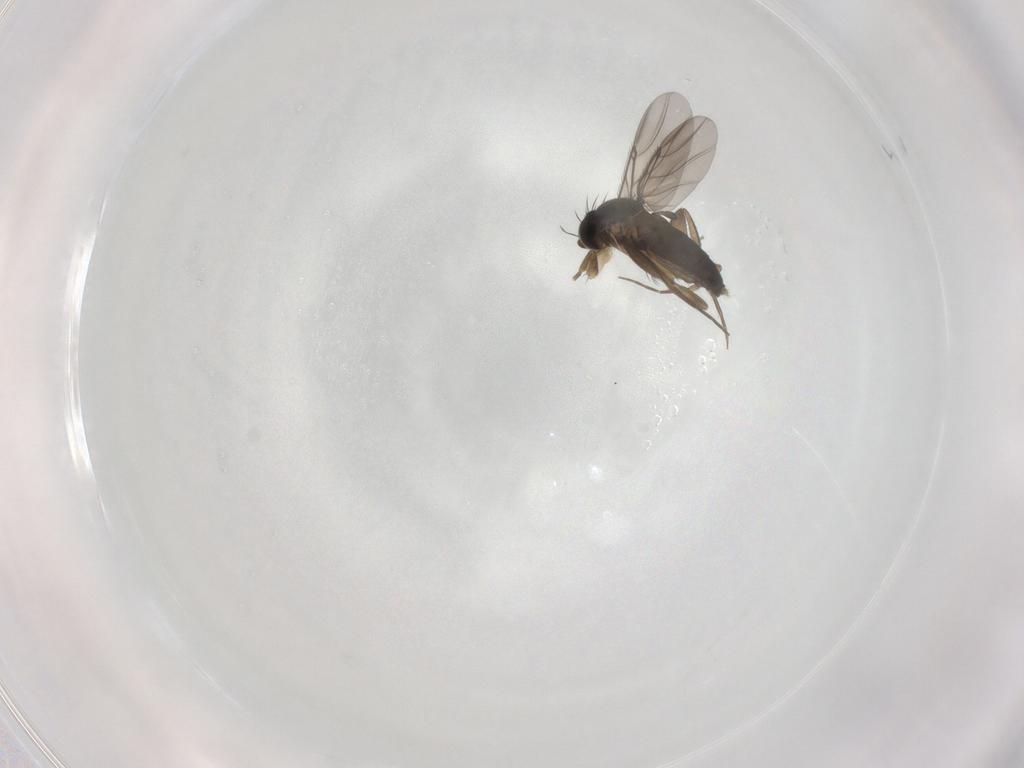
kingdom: Animalia
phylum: Arthropoda
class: Insecta
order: Diptera
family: Phoridae
